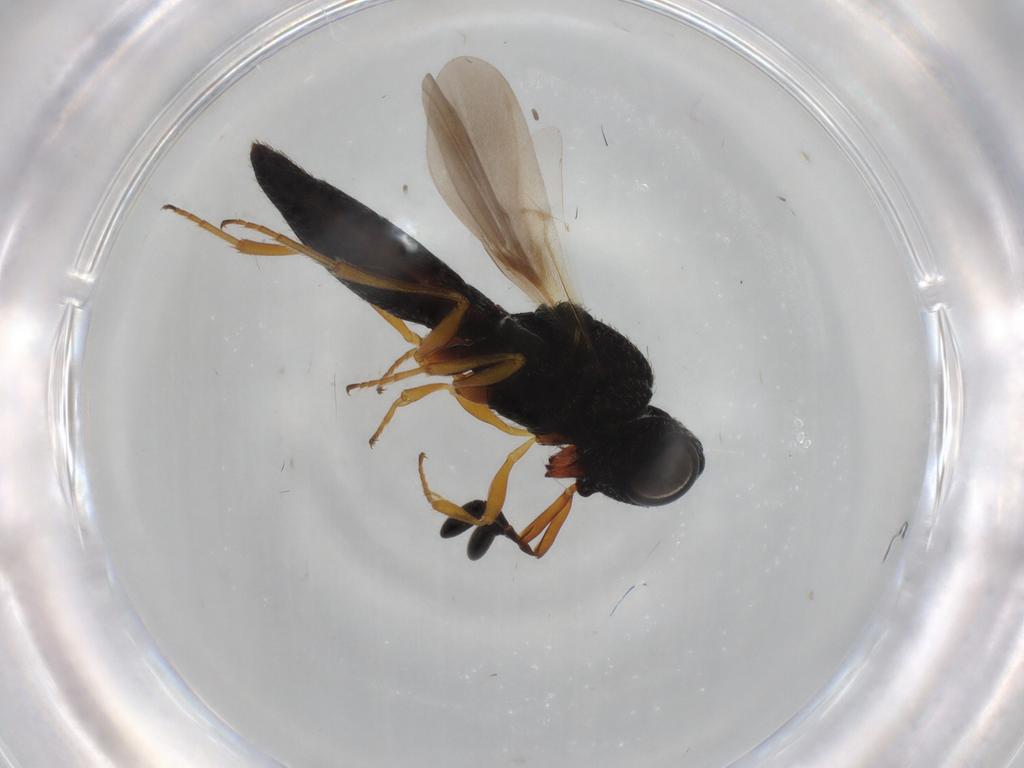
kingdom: Animalia
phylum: Arthropoda
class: Insecta
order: Hymenoptera
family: Scelionidae
